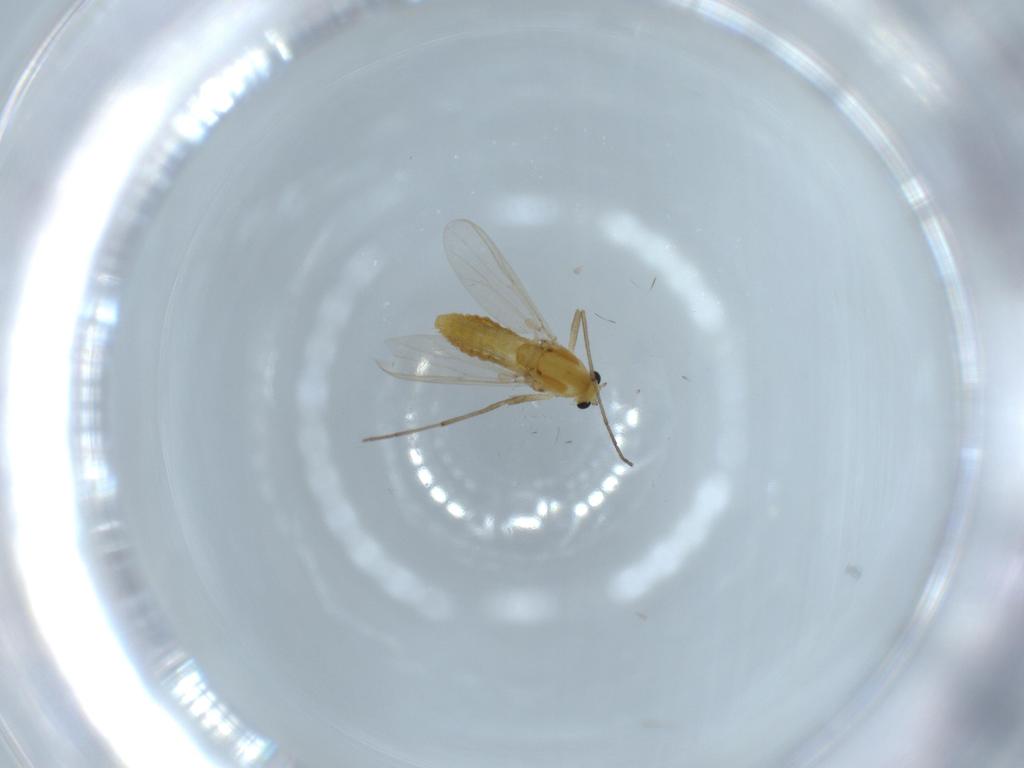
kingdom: Animalia
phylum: Arthropoda
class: Insecta
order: Diptera
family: Chironomidae
